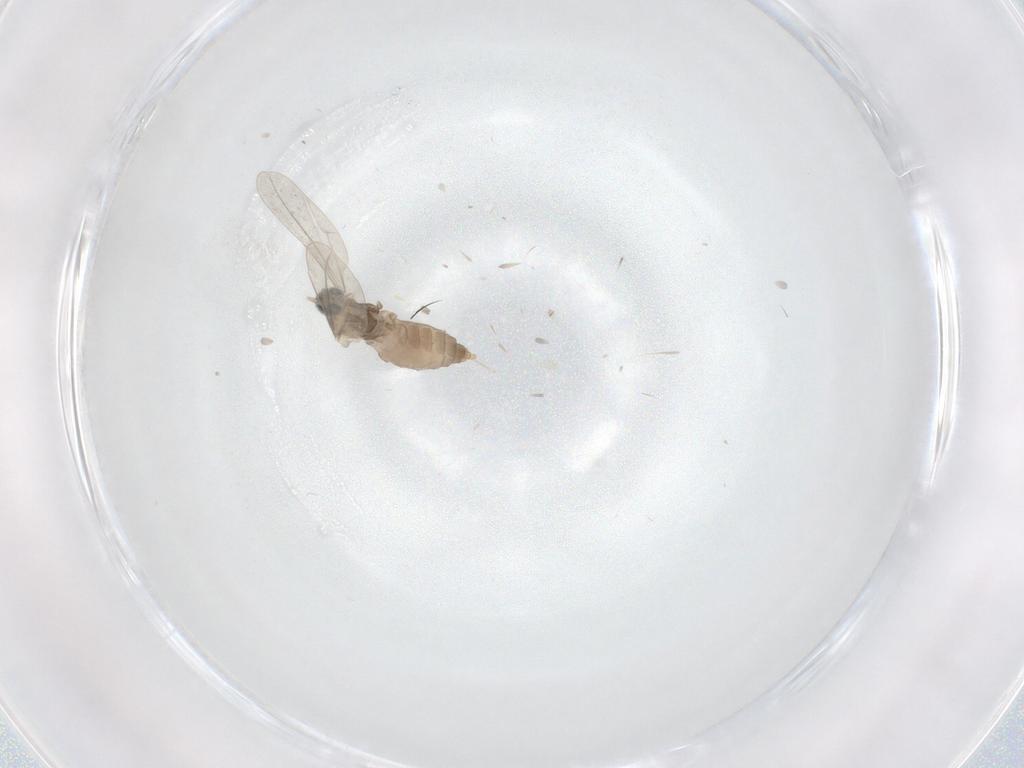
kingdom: Animalia
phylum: Arthropoda
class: Insecta
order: Diptera
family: Cecidomyiidae
